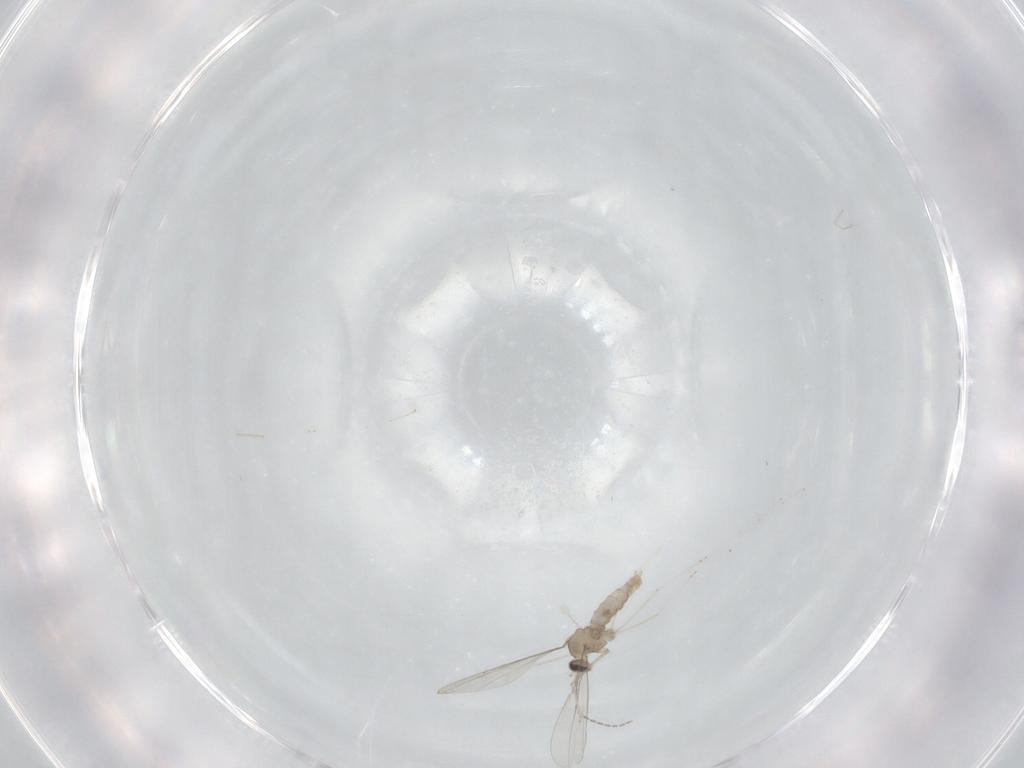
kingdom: Animalia
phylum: Arthropoda
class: Insecta
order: Diptera
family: Cecidomyiidae
